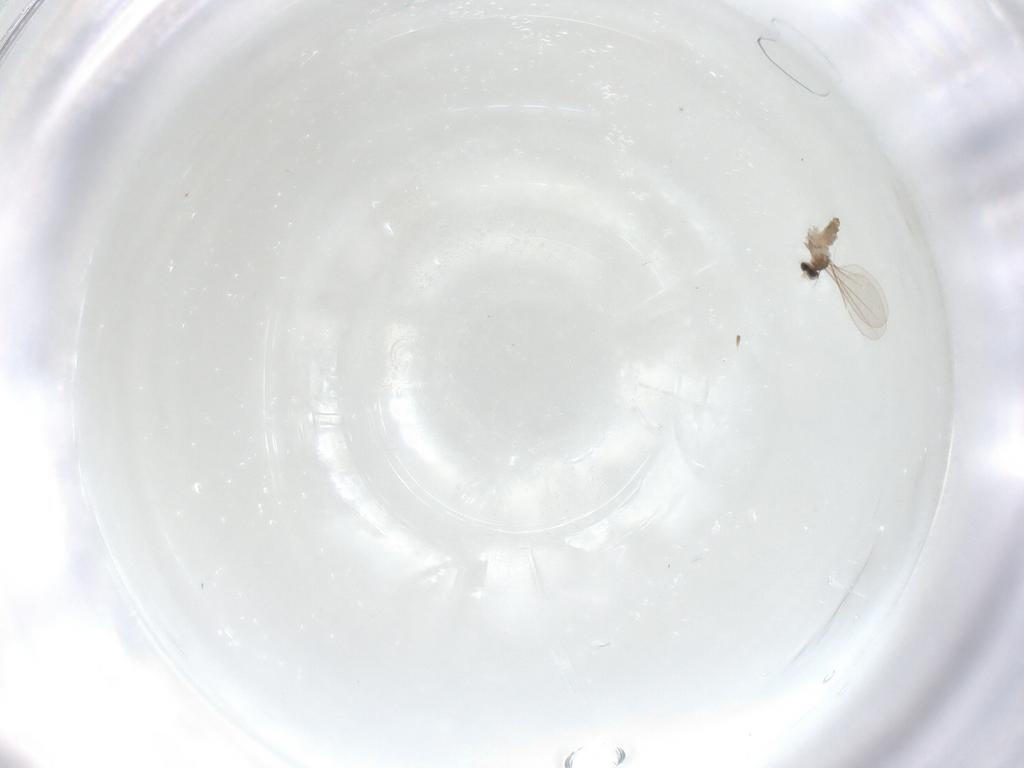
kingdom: Animalia
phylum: Arthropoda
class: Insecta
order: Diptera
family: Cecidomyiidae
